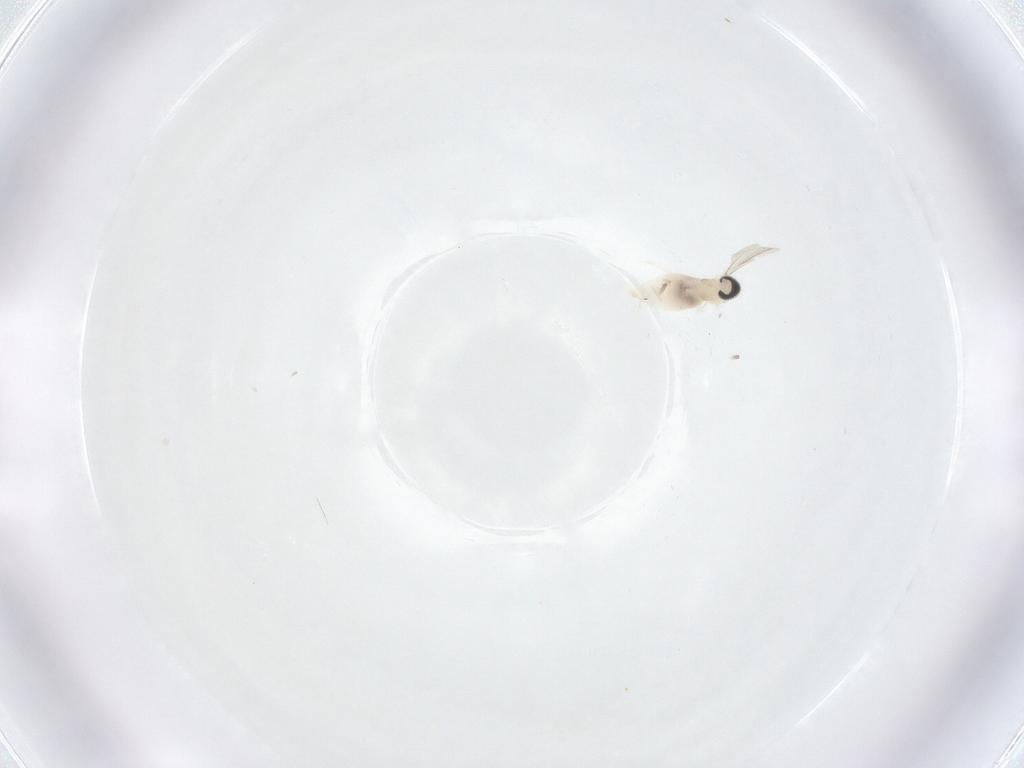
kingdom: Animalia
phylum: Arthropoda
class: Insecta
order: Diptera
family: Cecidomyiidae
